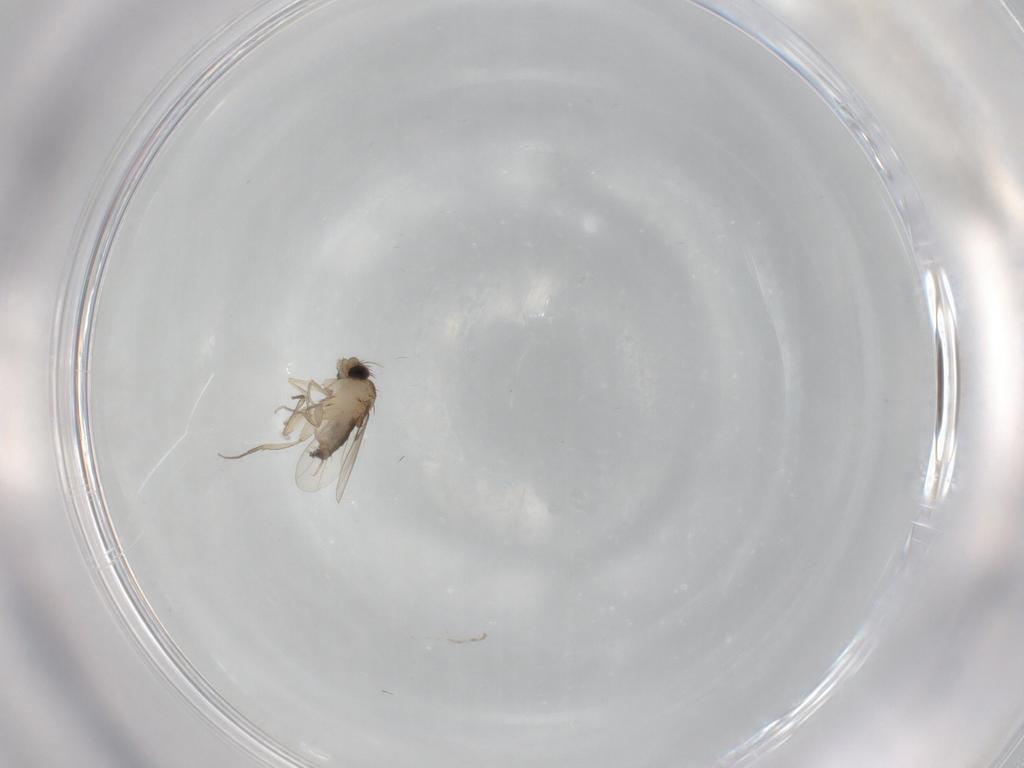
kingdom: Animalia
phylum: Arthropoda
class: Insecta
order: Diptera
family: Phoridae
